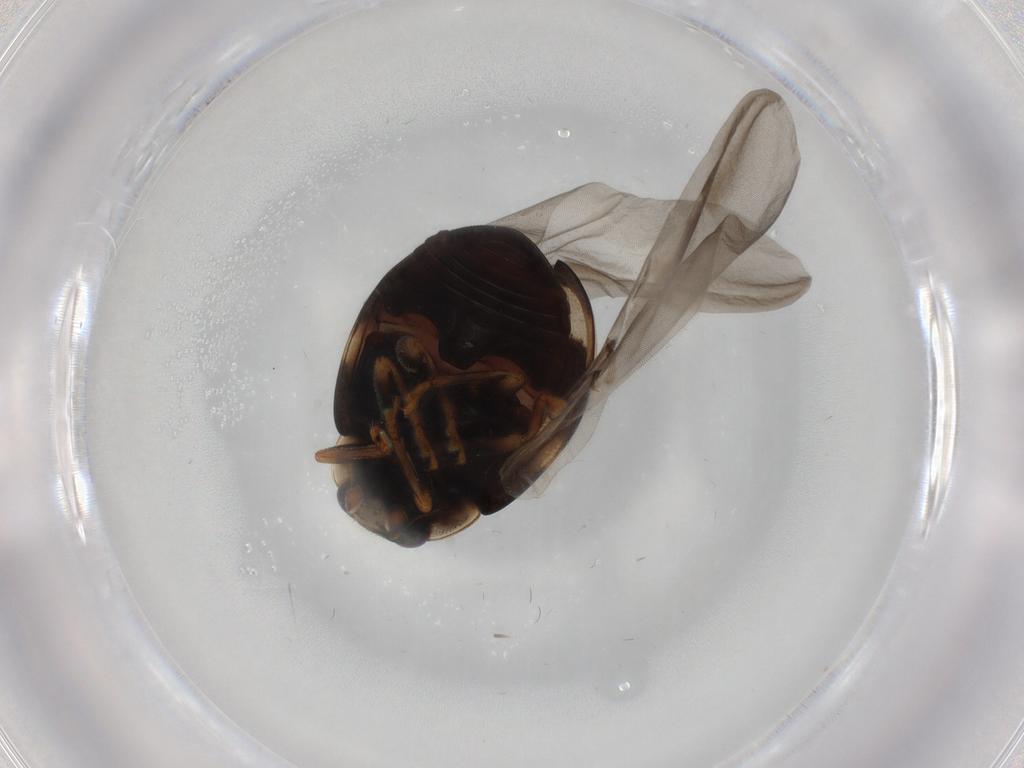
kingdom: Animalia
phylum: Arthropoda
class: Insecta
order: Coleoptera
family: Coccinellidae
